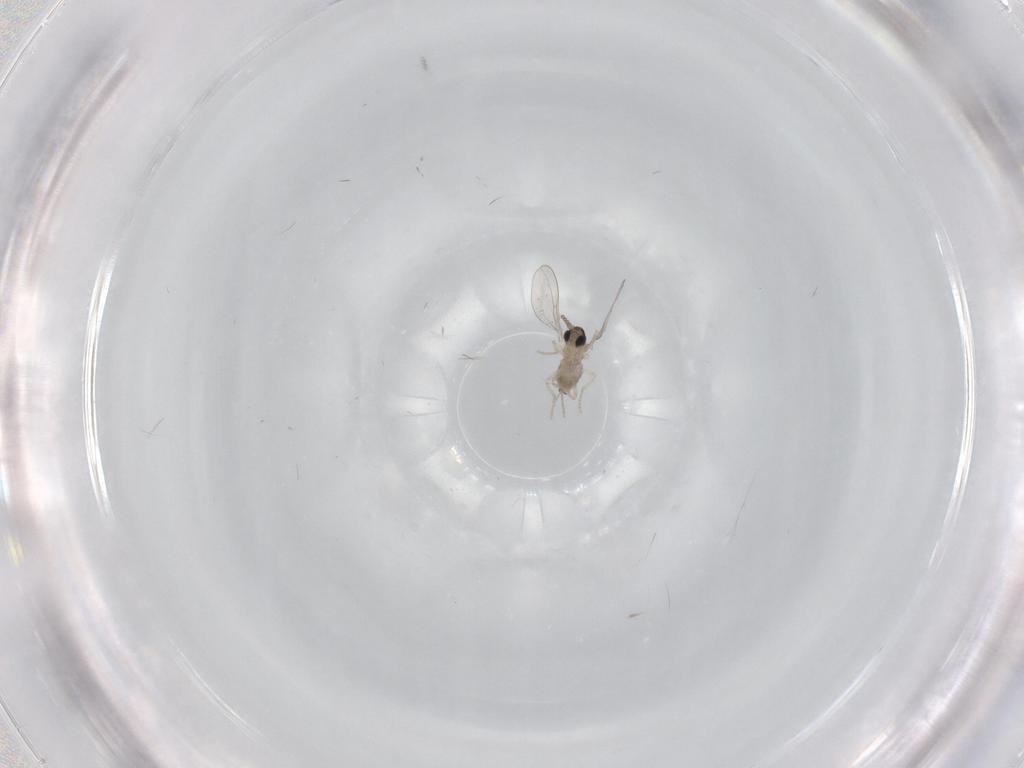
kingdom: Animalia
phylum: Arthropoda
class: Insecta
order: Diptera
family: Cecidomyiidae
